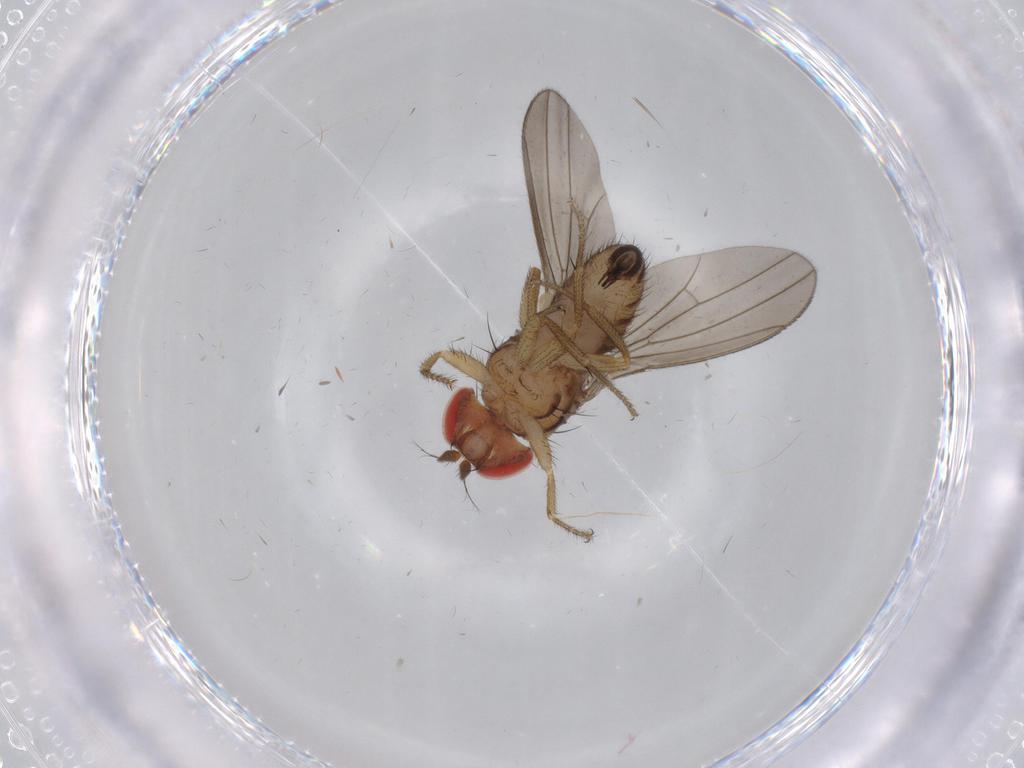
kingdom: Animalia
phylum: Arthropoda
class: Insecta
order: Diptera
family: Drosophilidae
